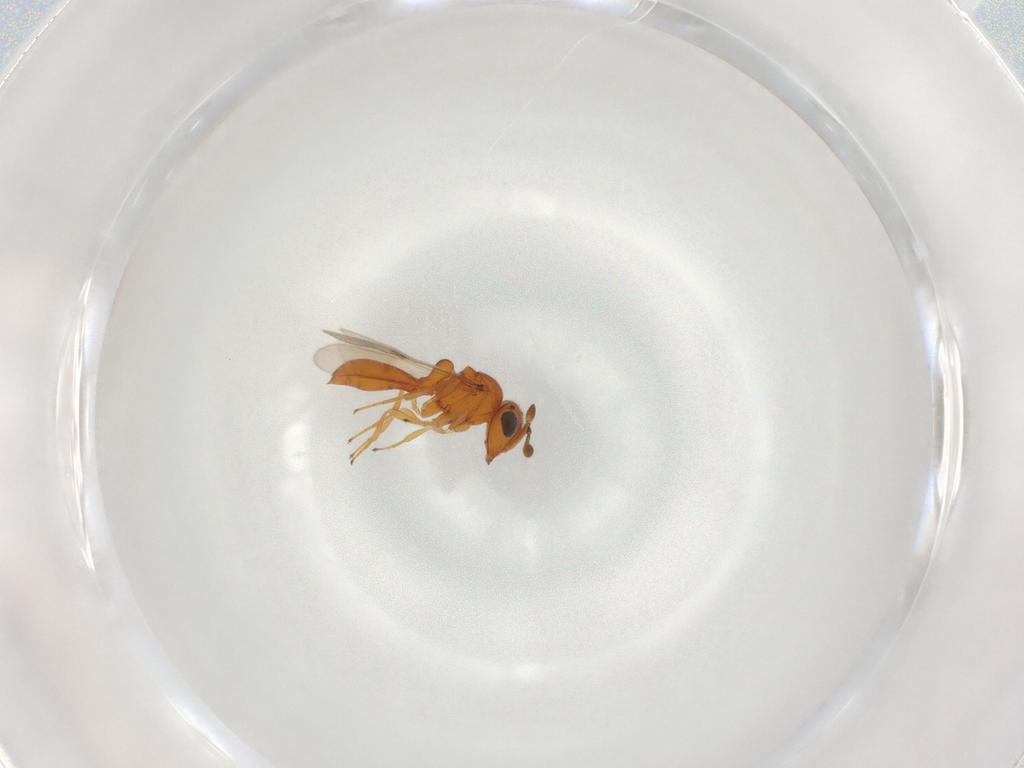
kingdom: Animalia
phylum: Arthropoda
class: Insecta
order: Hymenoptera
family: Scelionidae
